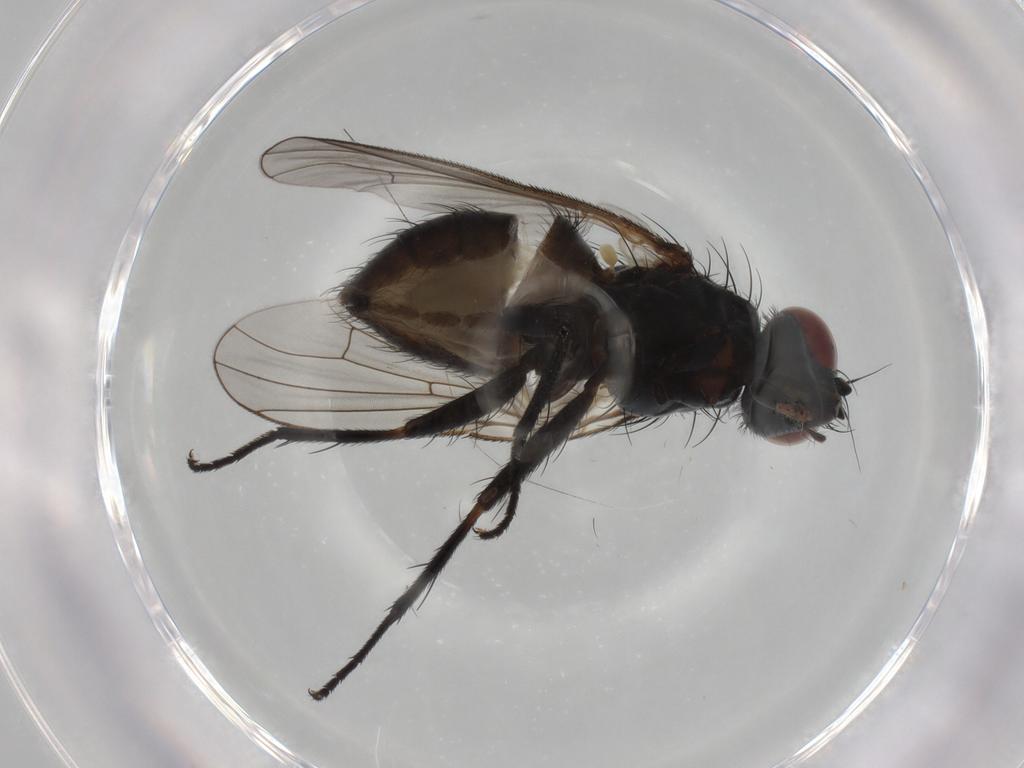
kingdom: Animalia
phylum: Arthropoda
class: Insecta
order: Diptera
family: Muscidae
